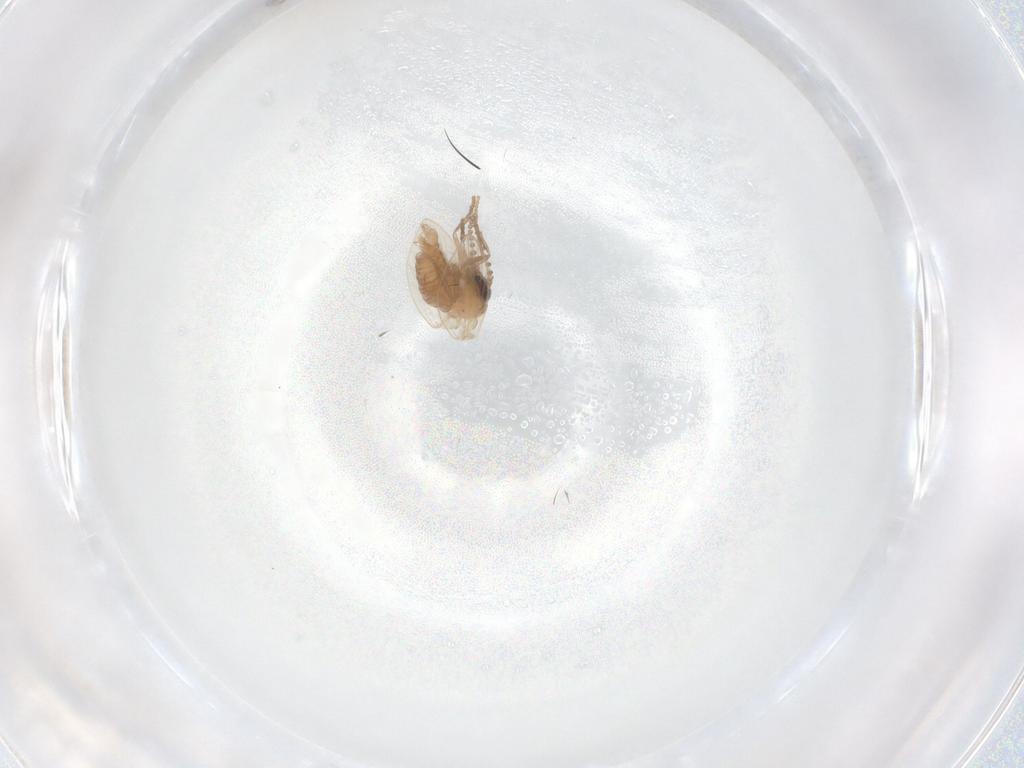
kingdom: Animalia
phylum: Arthropoda
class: Insecta
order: Diptera
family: Psychodidae
